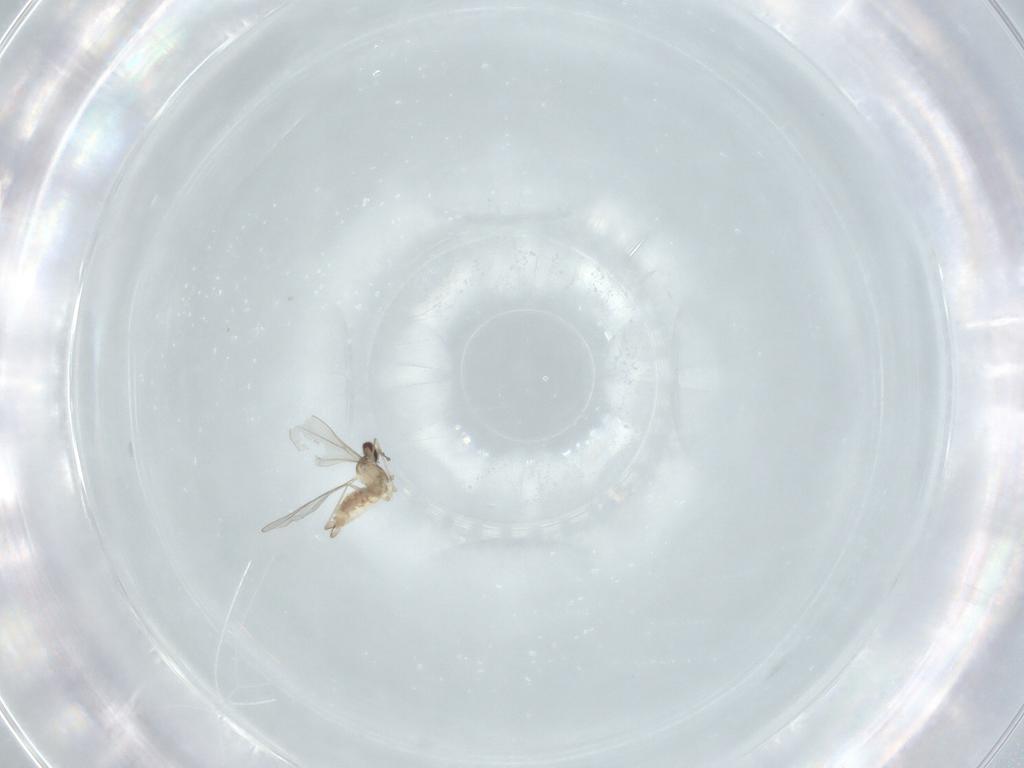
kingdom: Animalia
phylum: Arthropoda
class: Insecta
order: Diptera
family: Cecidomyiidae
